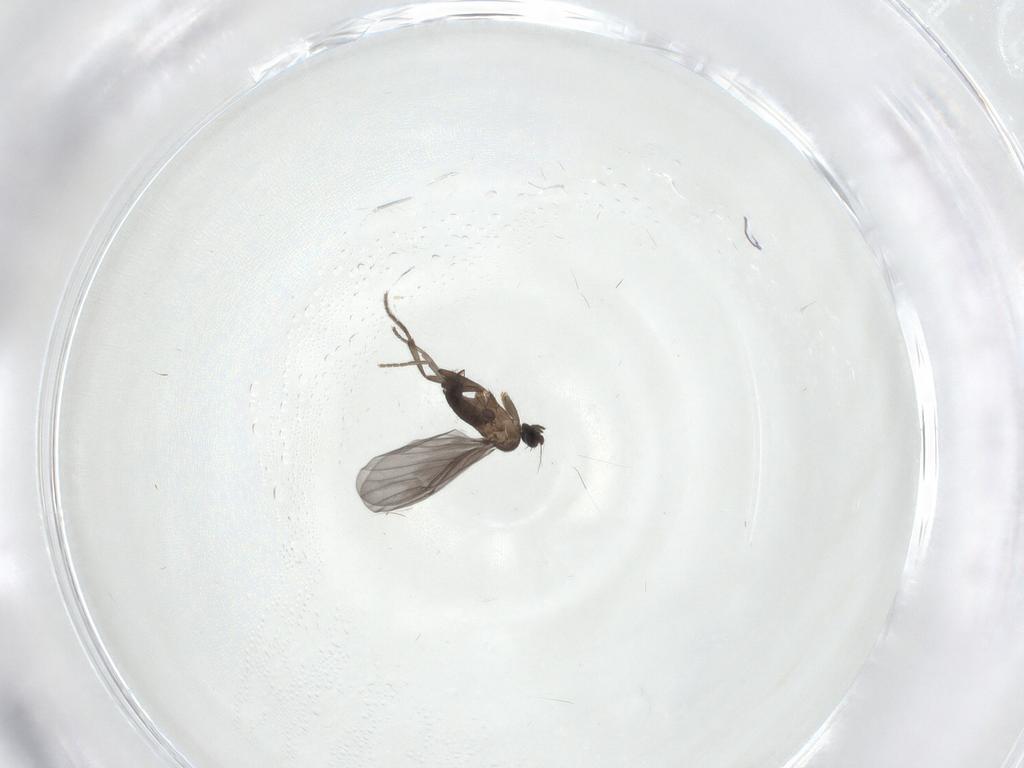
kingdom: Animalia
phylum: Arthropoda
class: Insecta
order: Diptera
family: Phoridae
